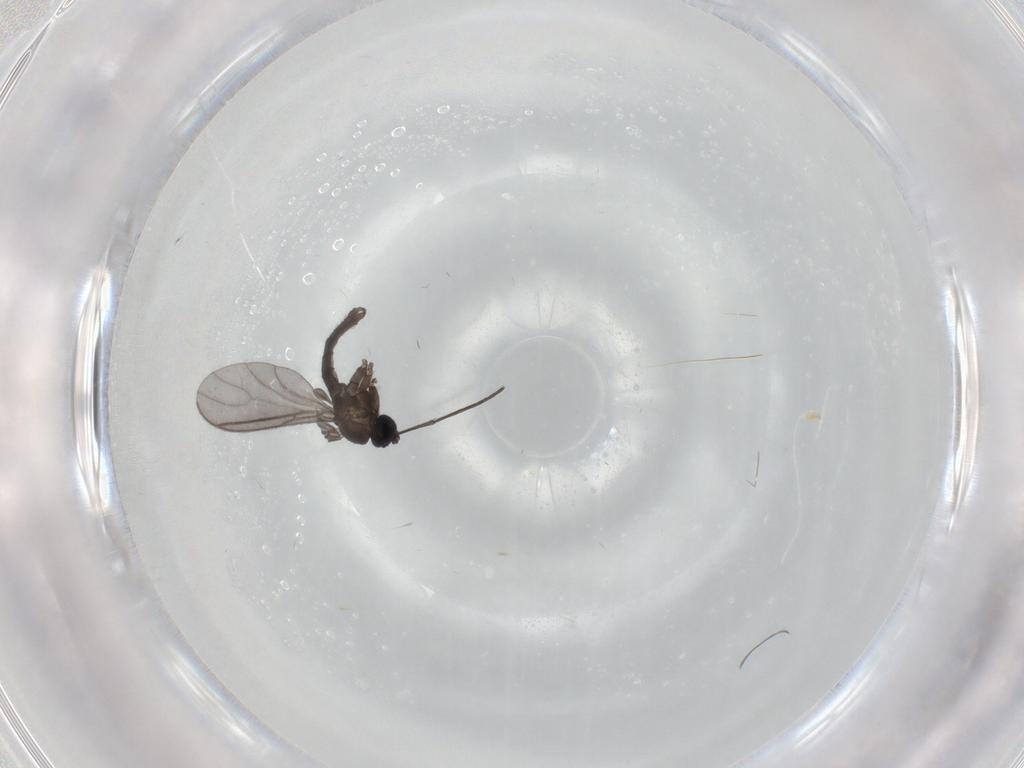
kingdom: Animalia
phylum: Arthropoda
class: Insecta
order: Diptera
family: Sciaridae
